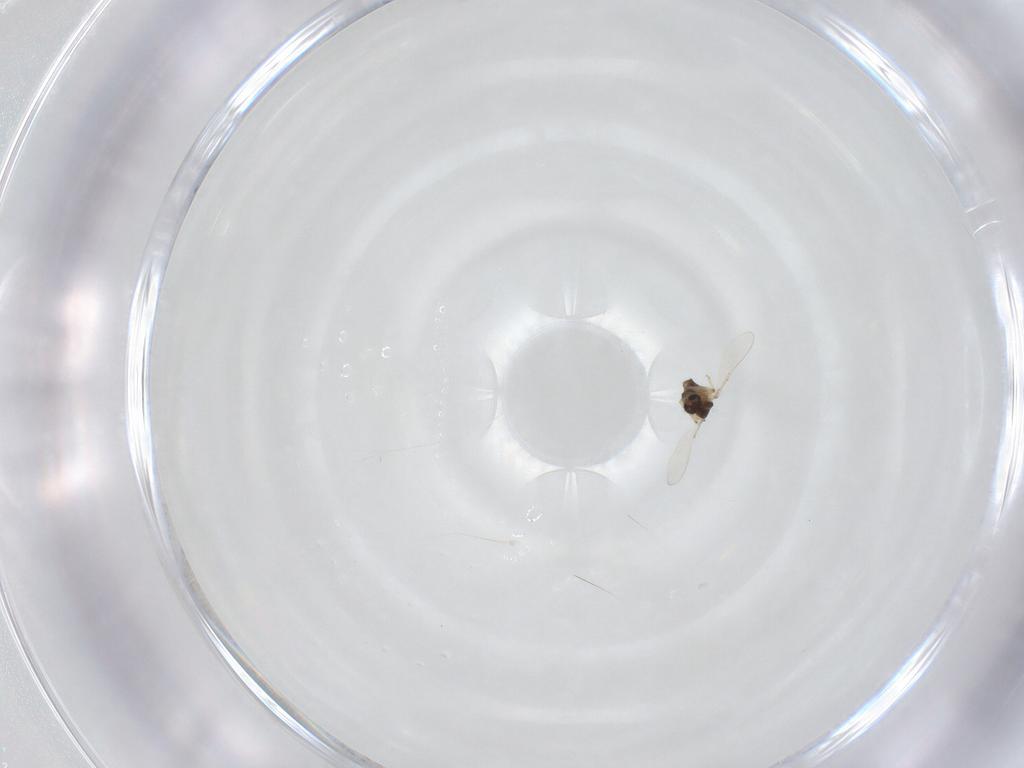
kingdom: Animalia
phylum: Arthropoda
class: Insecta
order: Diptera
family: Chironomidae
